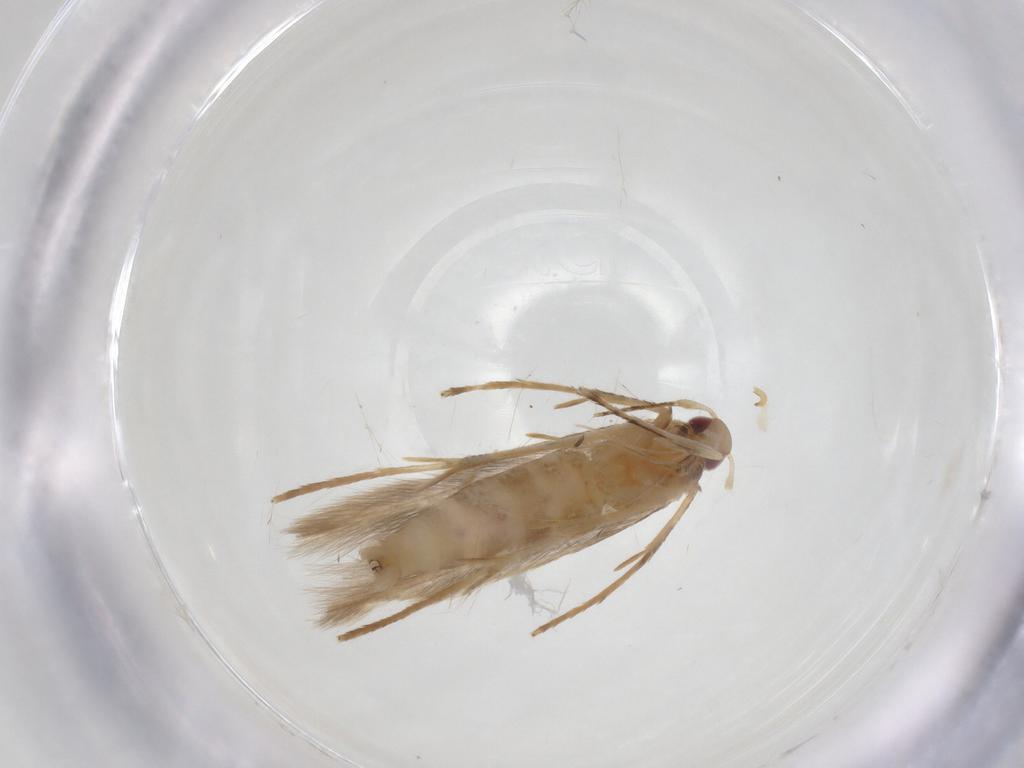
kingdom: Animalia
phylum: Arthropoda
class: Insecta
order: Lepidoptera
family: Cosmopterigidae
